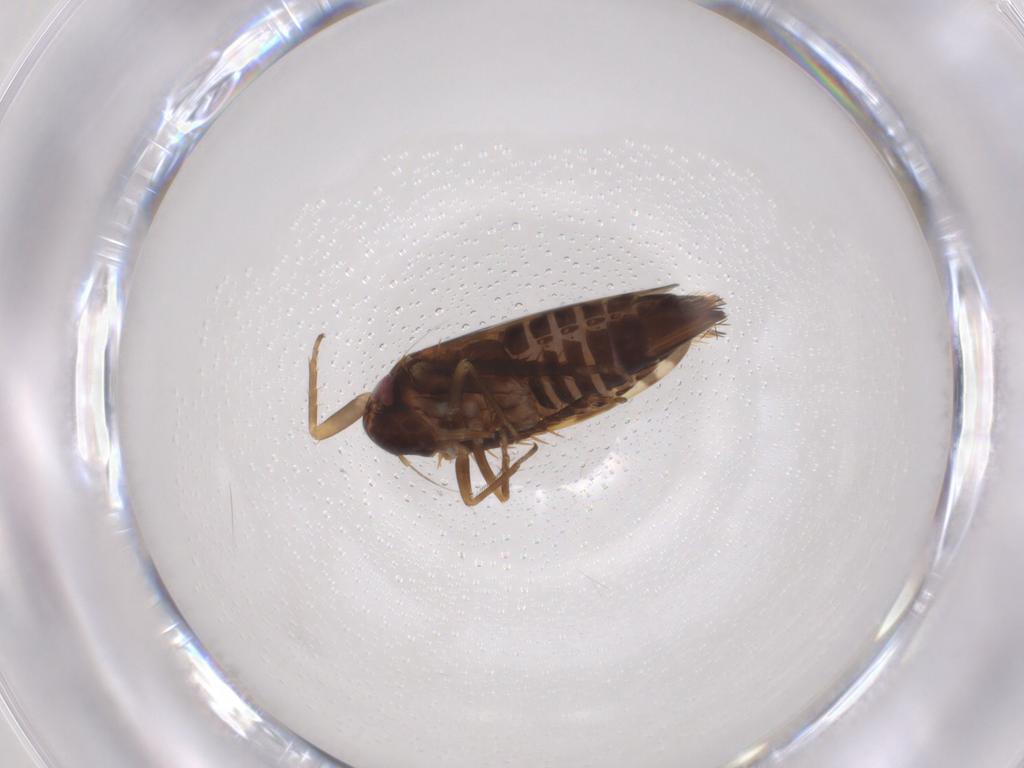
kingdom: Animalia
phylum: Arthropoda
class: Insecta
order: Hemiptera
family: Cicadellidae
